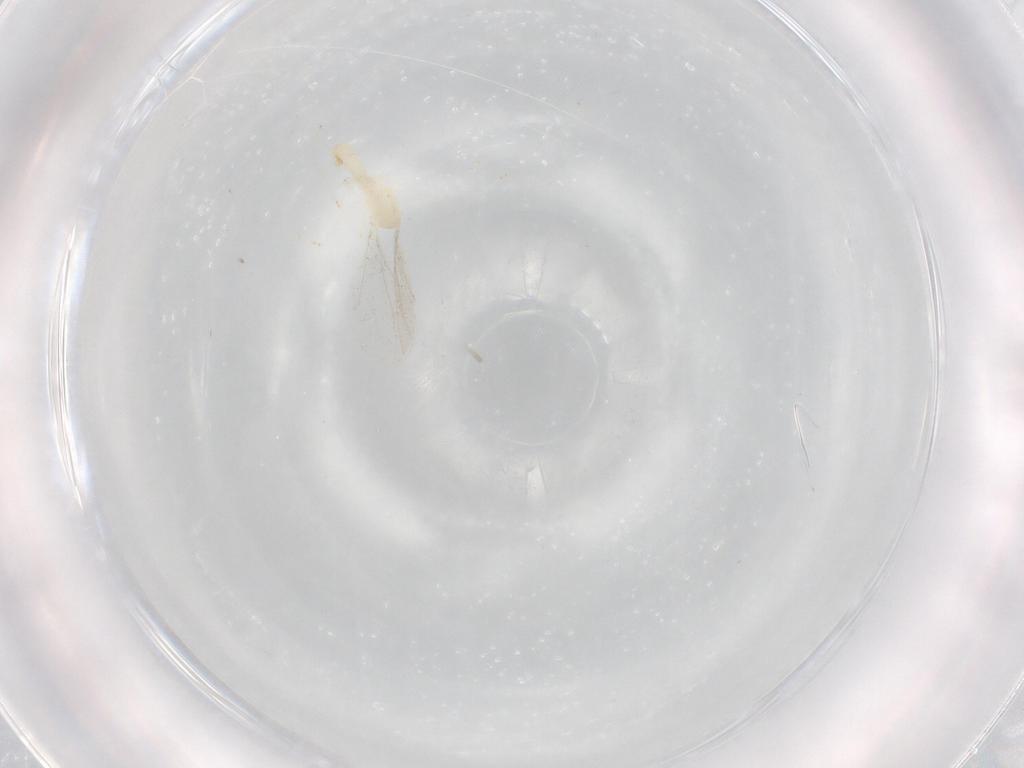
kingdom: Animalia
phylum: Arthropoda
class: Insecta
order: Diptera
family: Cecidomyiidae
